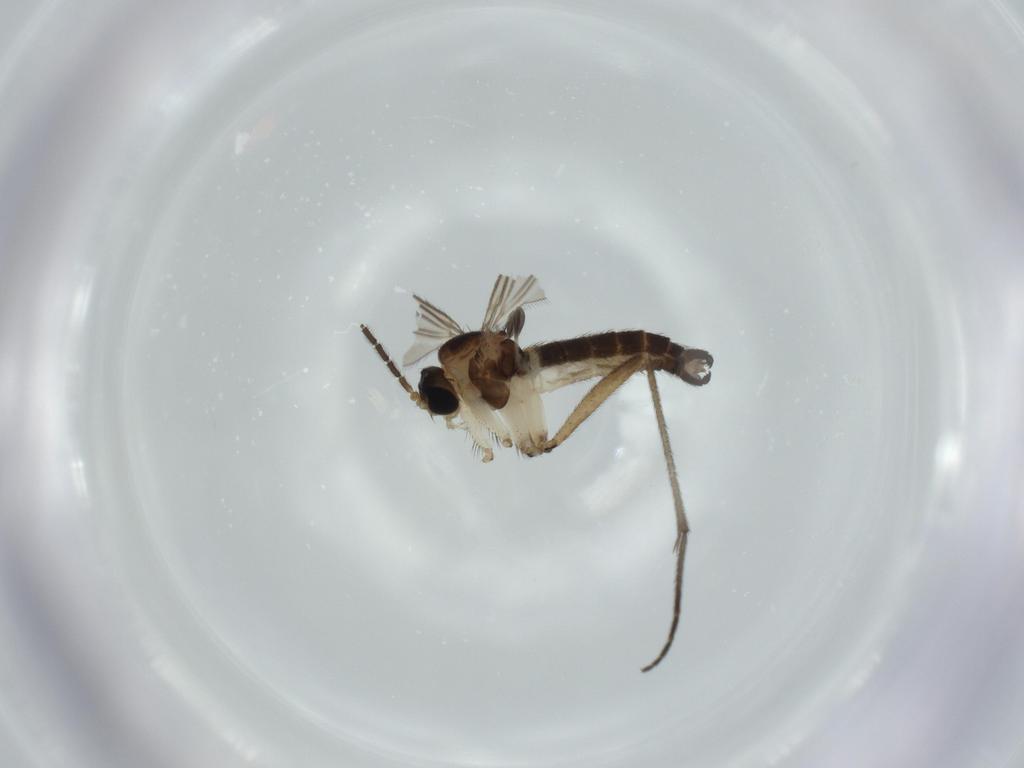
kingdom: Animalia
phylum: Arthropoda
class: Insecta
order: Diptera
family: Sciaridae
